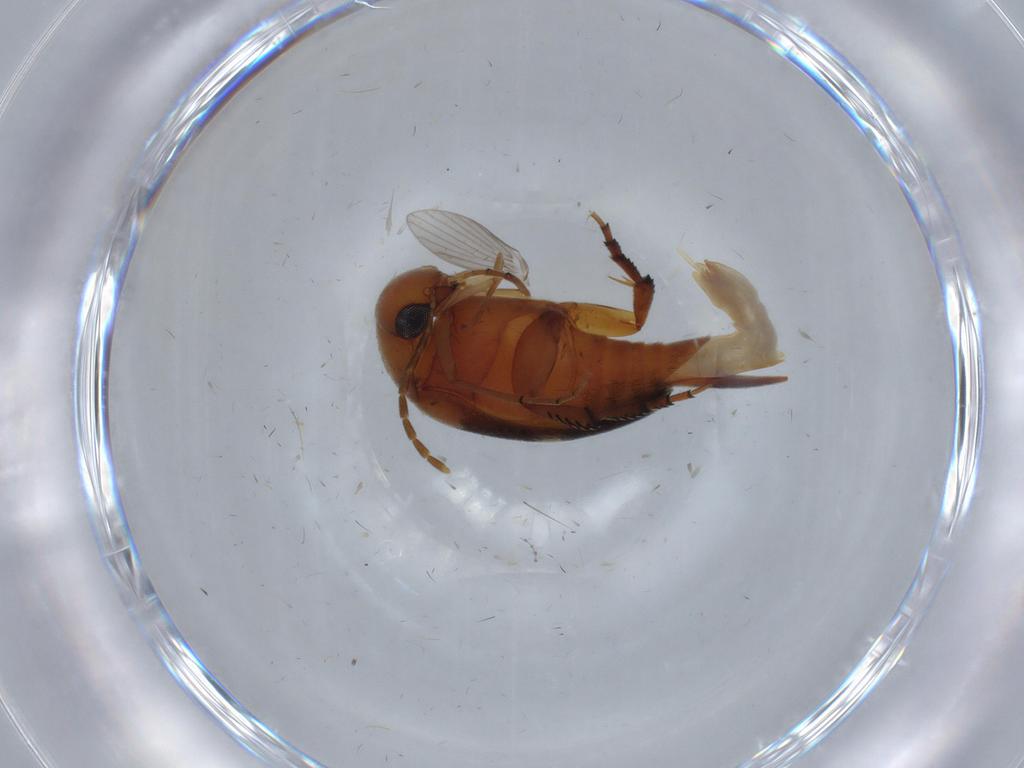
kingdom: Animalia
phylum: Arthropoda
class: Insecta
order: Coleoptera
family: Mordellidae
